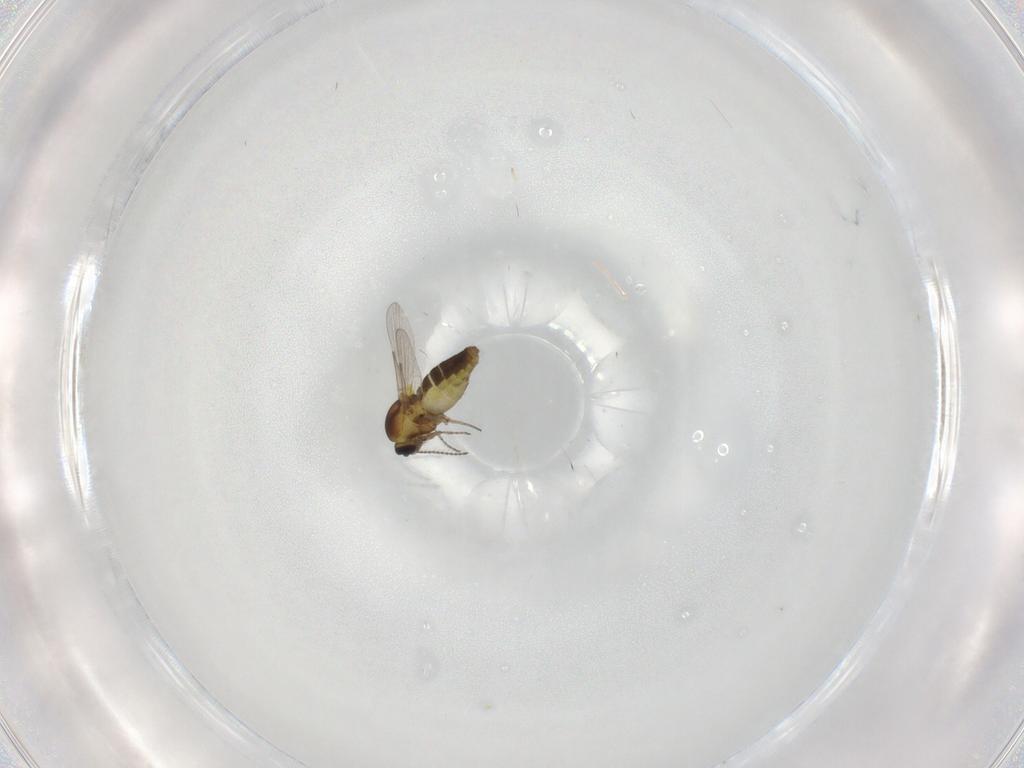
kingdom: Animalia
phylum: Arthropoda
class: Insecta
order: Diptera
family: Ceratopogonidae
